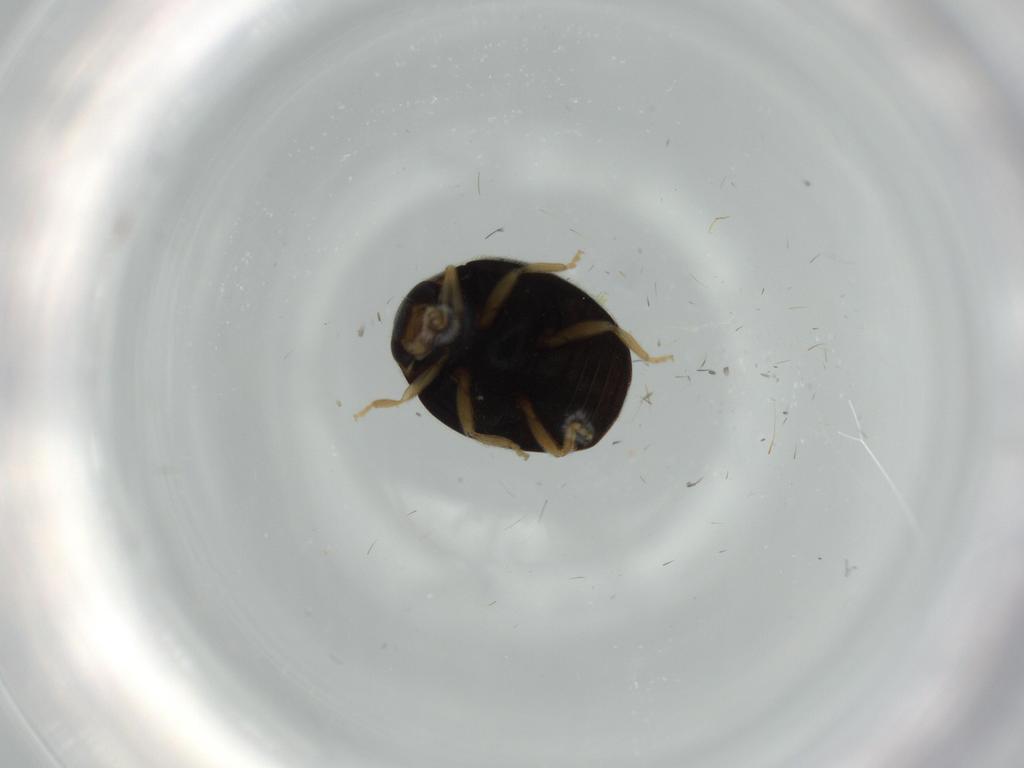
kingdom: Animalia
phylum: Arthropoda
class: Insecta
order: Coleoptera
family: Coccinellidae
